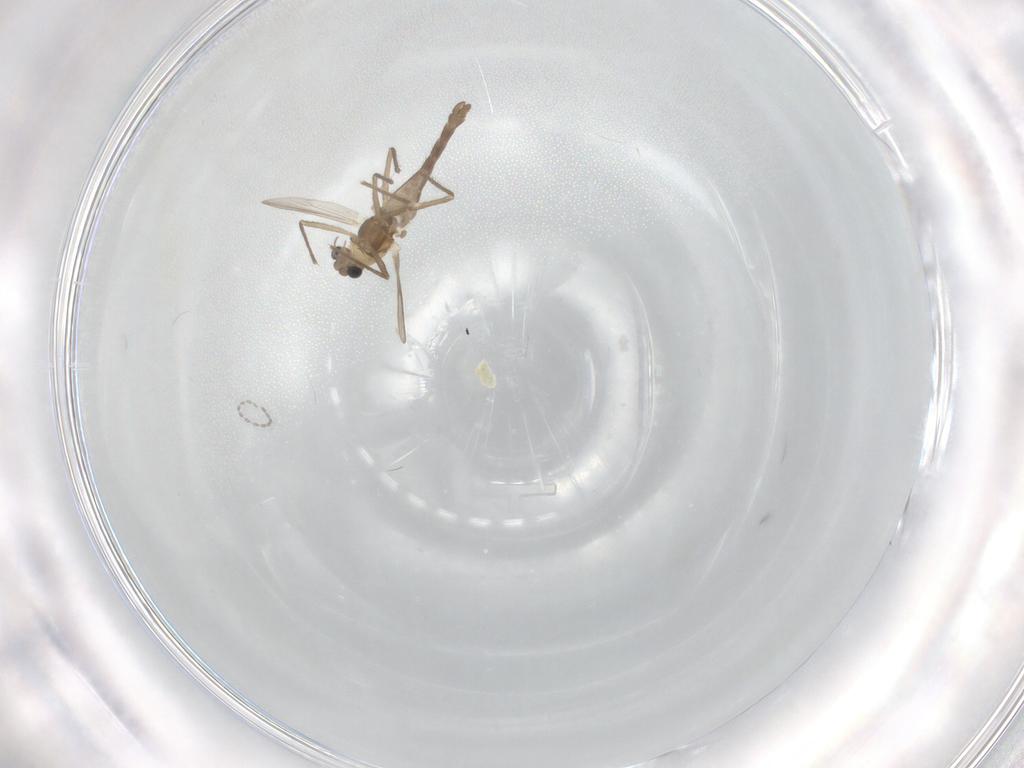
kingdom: Animalia
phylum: Arthropoda
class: Insecta
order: Diptera
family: Chironomidae
